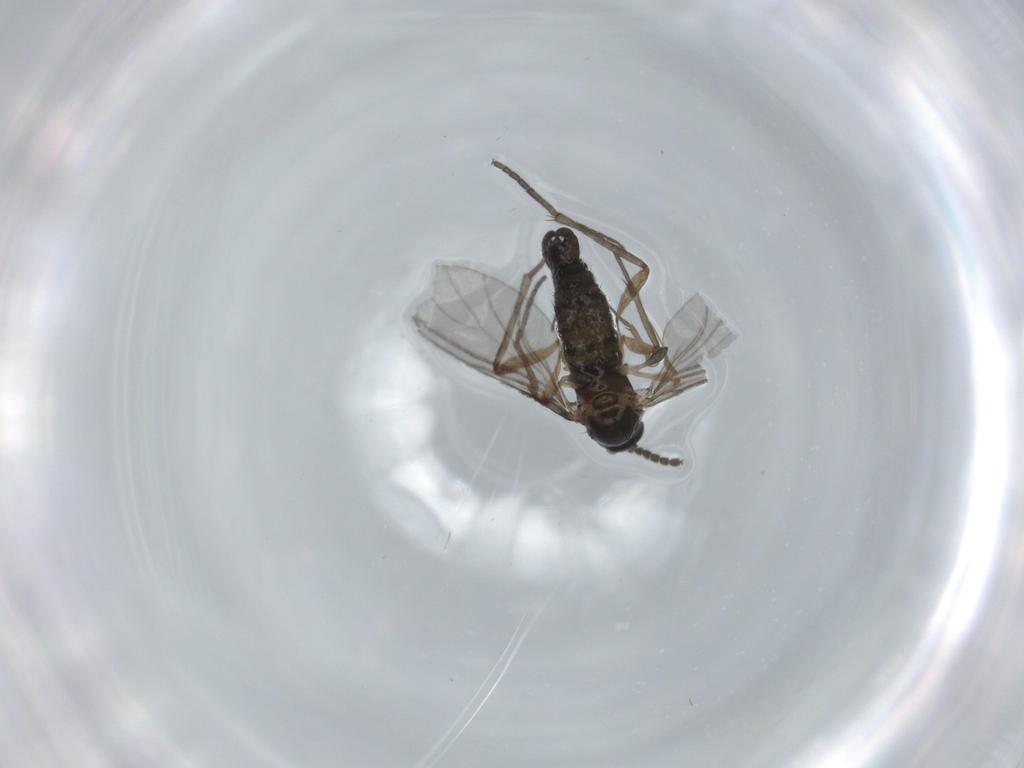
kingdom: Animalia
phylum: Arthropoda
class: Insecta
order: Diptera
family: Sciaridae
